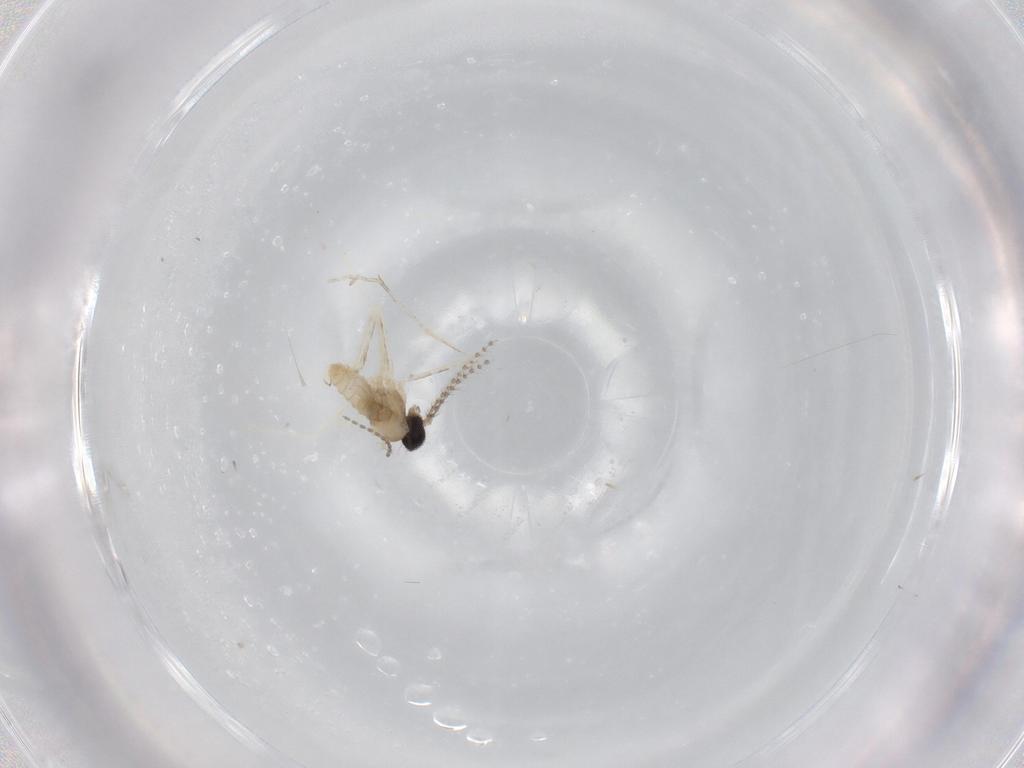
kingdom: Animalia
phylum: Arthropoda
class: Insecta
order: Diptera
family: Cecidomyiidae
